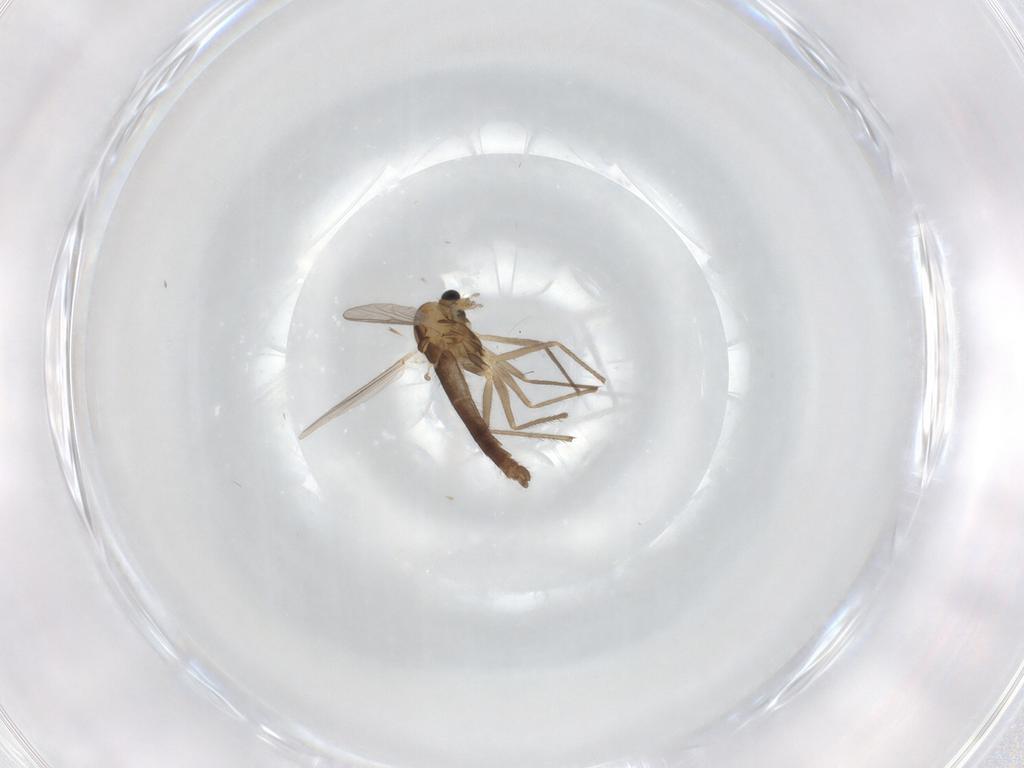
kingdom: Animalia
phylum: Arthropoda
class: Insecta
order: Diptera
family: Chironomidae
